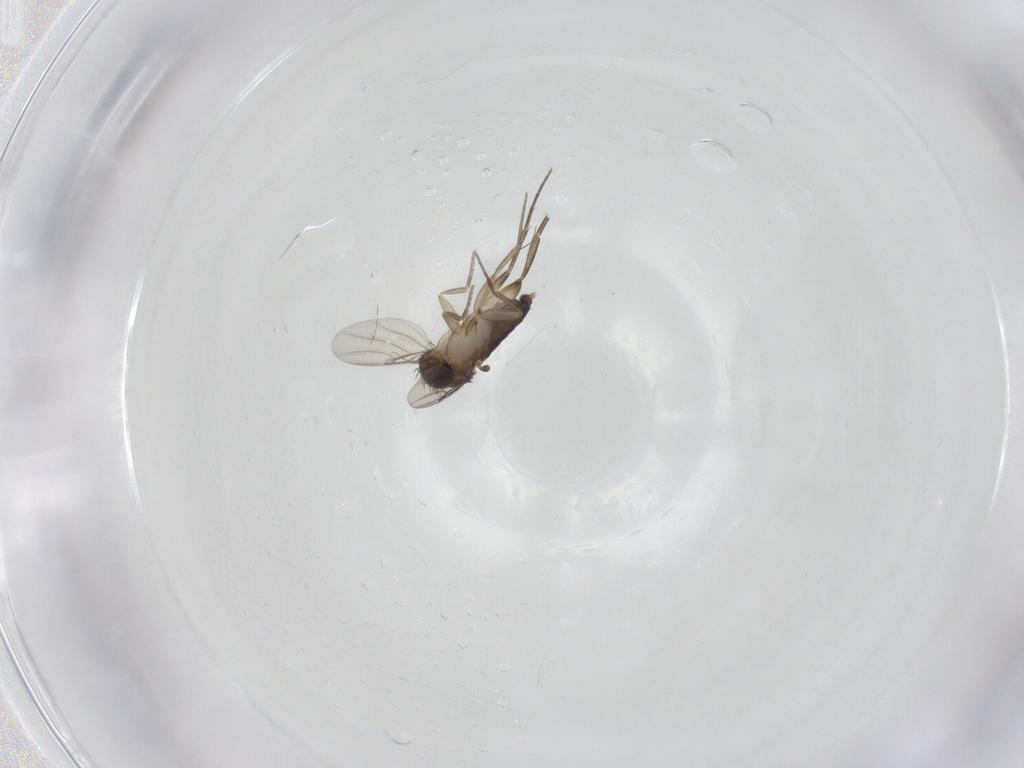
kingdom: Animalia
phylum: Arthropoda
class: Insecta
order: Diptera
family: Phoridae
